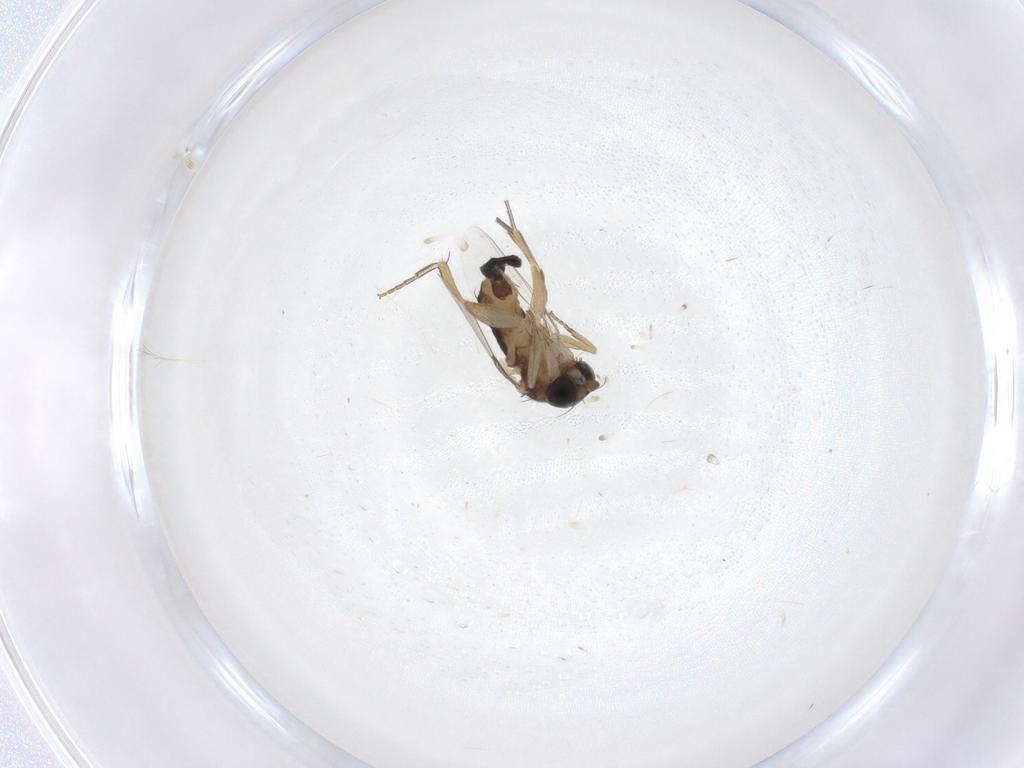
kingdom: Animalia
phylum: Arthropoda
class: Insecta
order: Diptera
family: Phoridae
